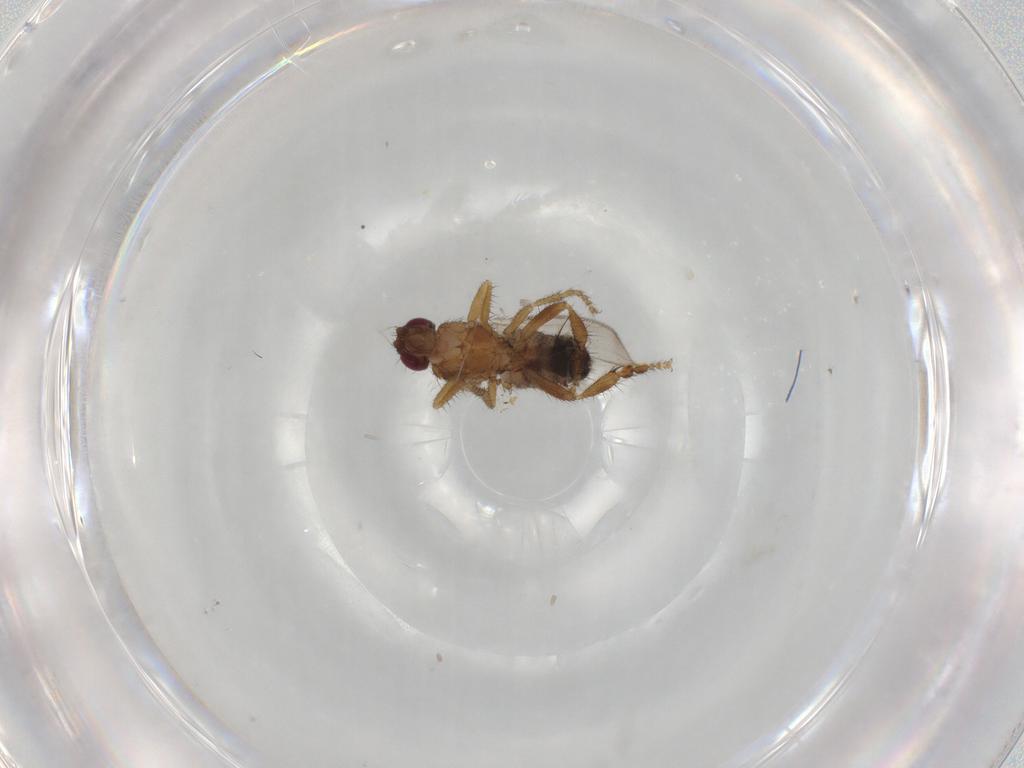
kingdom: Animalia
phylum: Arthropoda
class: Insecta
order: Diptera
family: Sphaeroceridae
